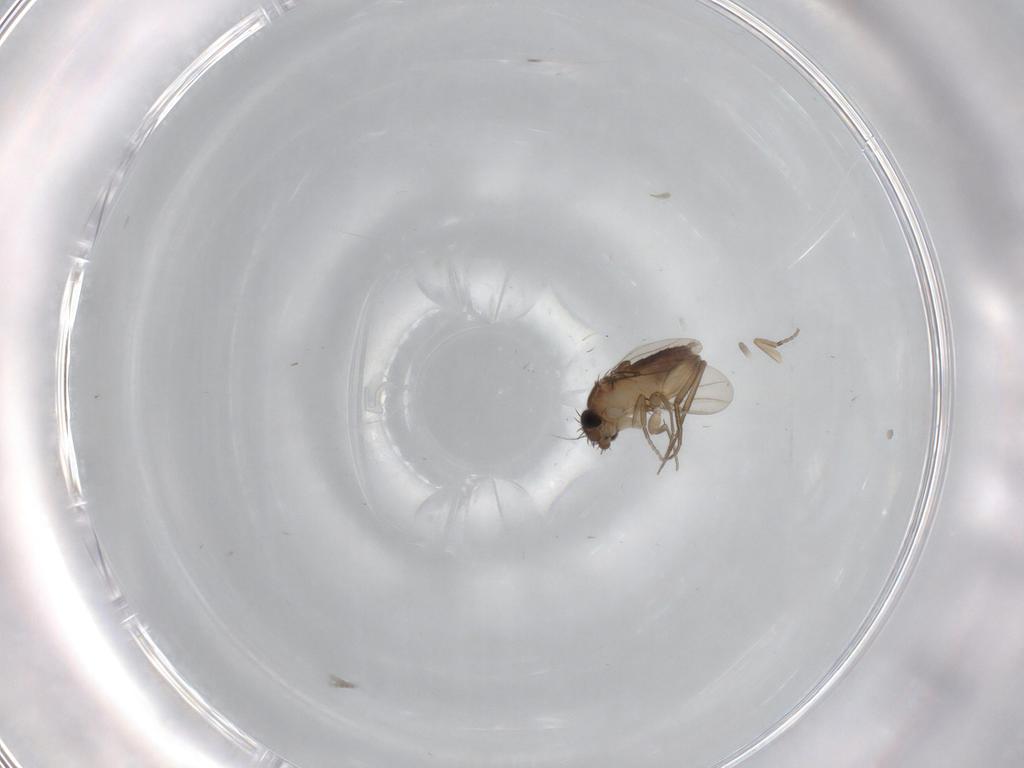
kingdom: Animalia
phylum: Arthropoda
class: Insecta
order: Diptera
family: Phoridae
